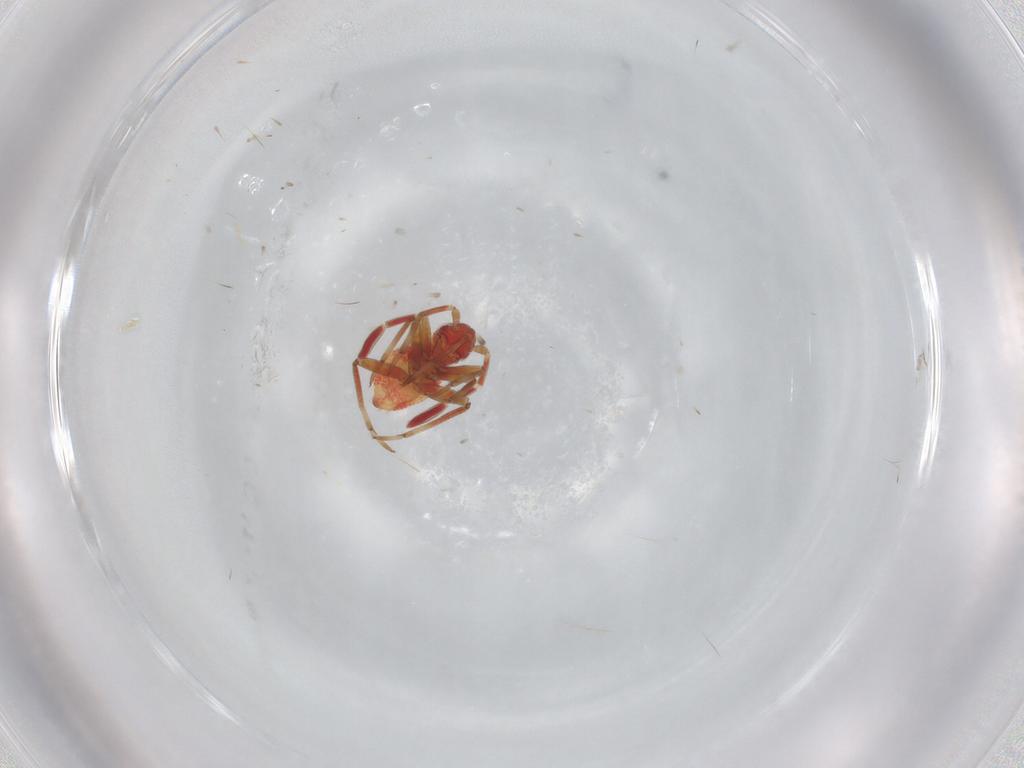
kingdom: Animalia
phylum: Arthropoda
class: Insecta
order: Hemiptera
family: Miridae
